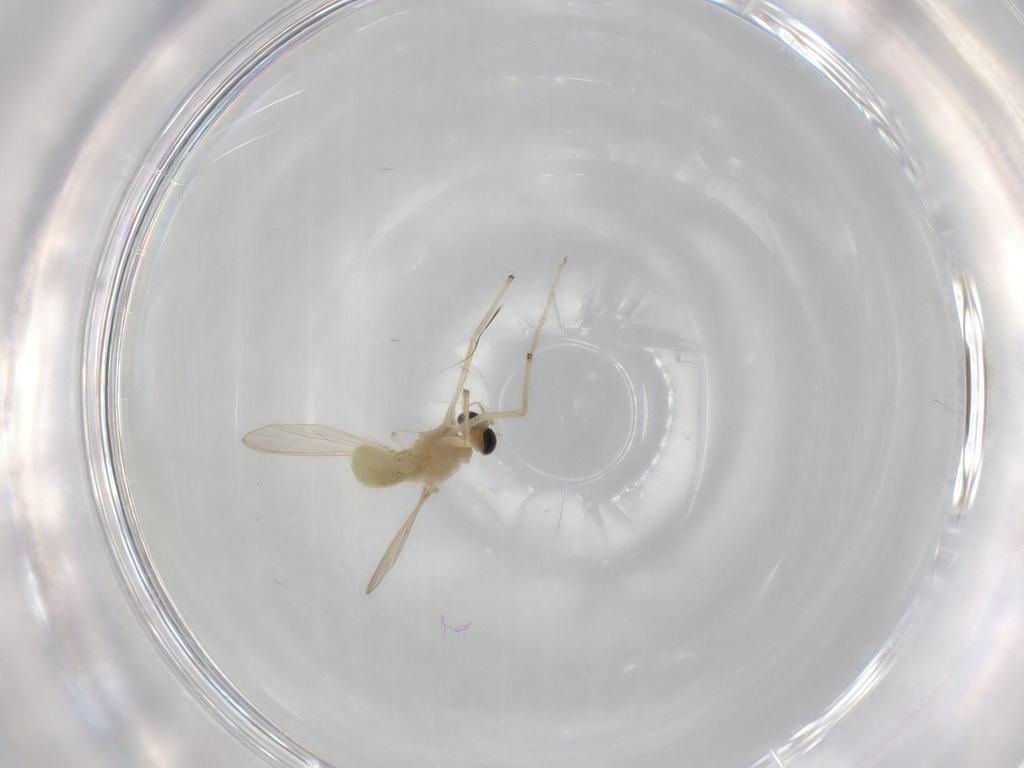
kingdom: Animalia
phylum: Arthropoda
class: Insecta
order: Diptera
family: Chironomidae
